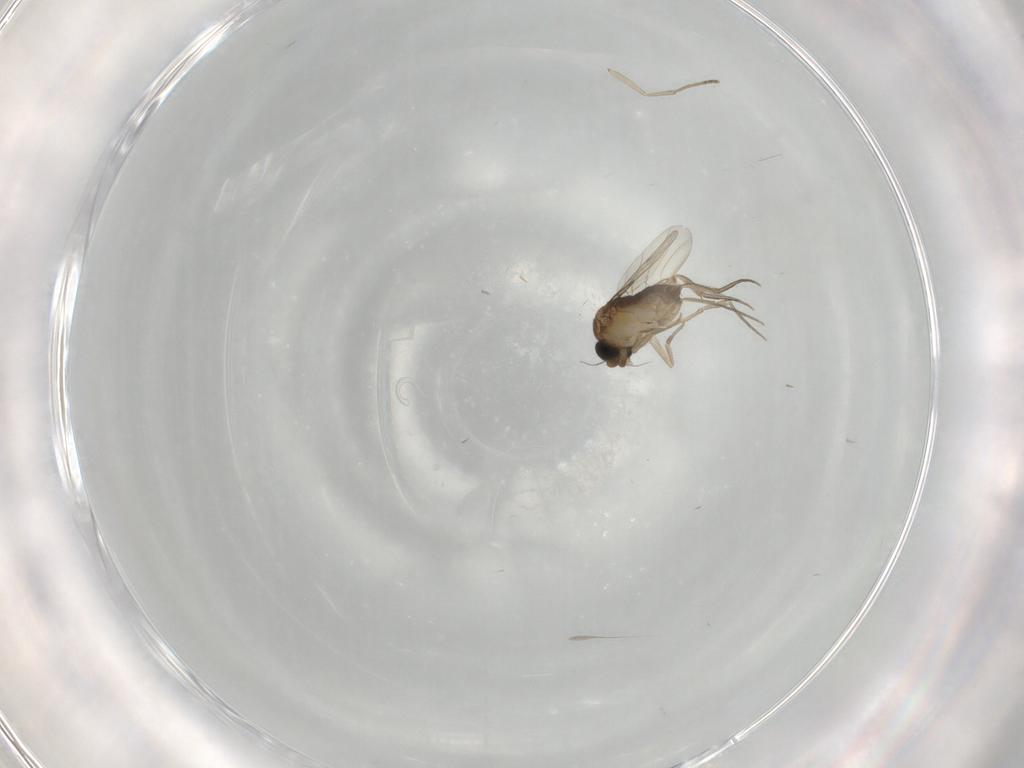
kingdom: Animalia
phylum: Arthropoda
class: Insecta
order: Diptera
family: Phoridae
